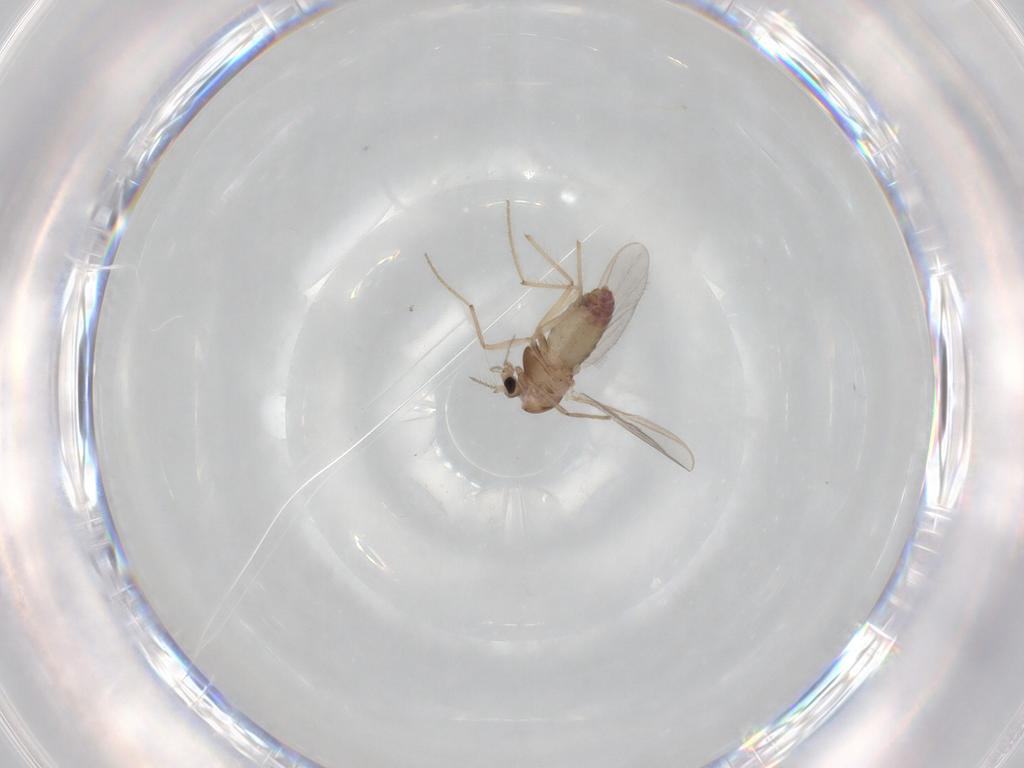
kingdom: Animalia
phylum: Arthropoda
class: Insecta
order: Diptera
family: Chironomidae
